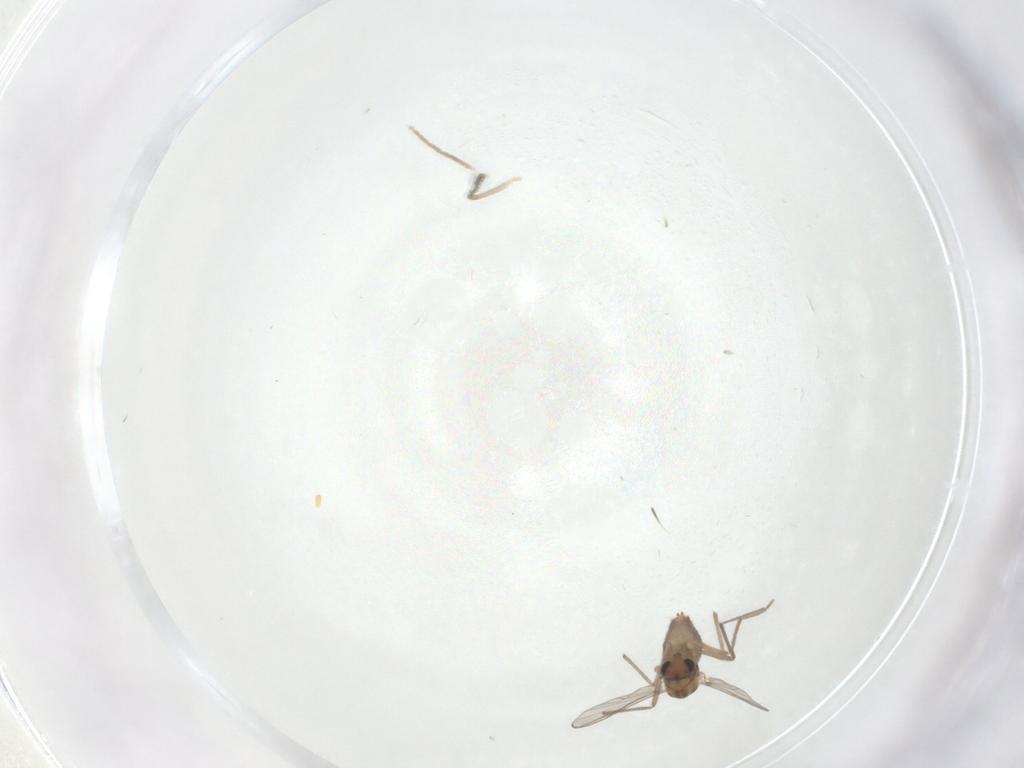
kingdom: Animalia
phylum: Arthropoda
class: Insecta
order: Diptera
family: Chironomidae
